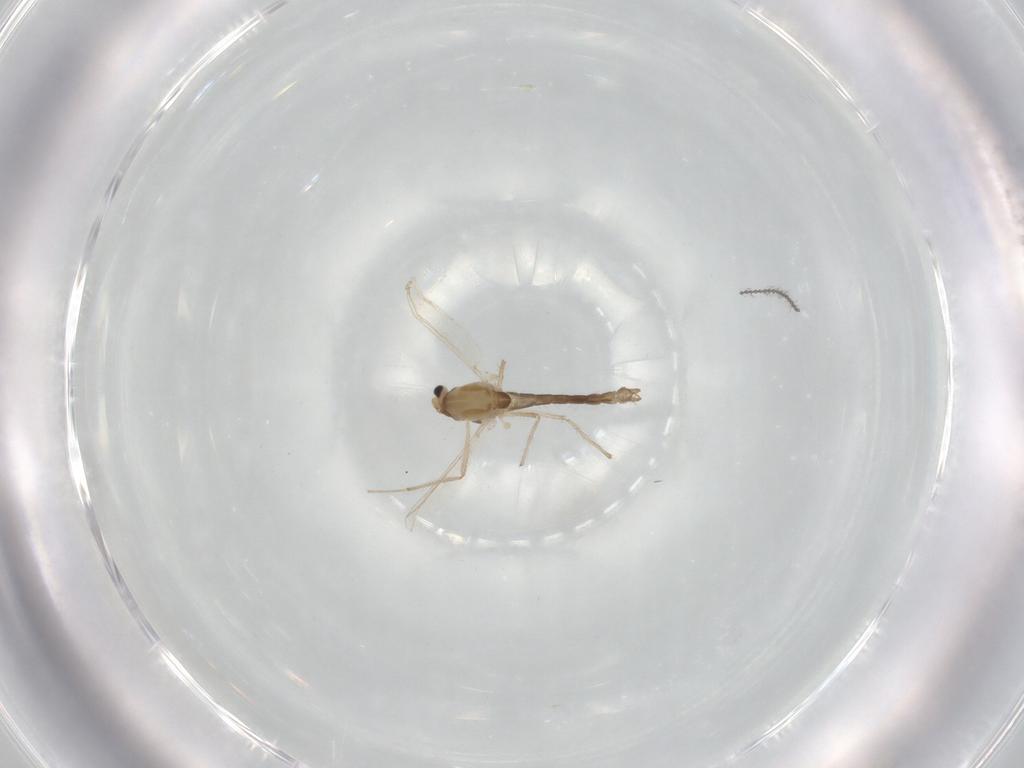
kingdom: Animalia
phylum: Arthropoda
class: Insecta
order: Diptera
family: Chironomidae
